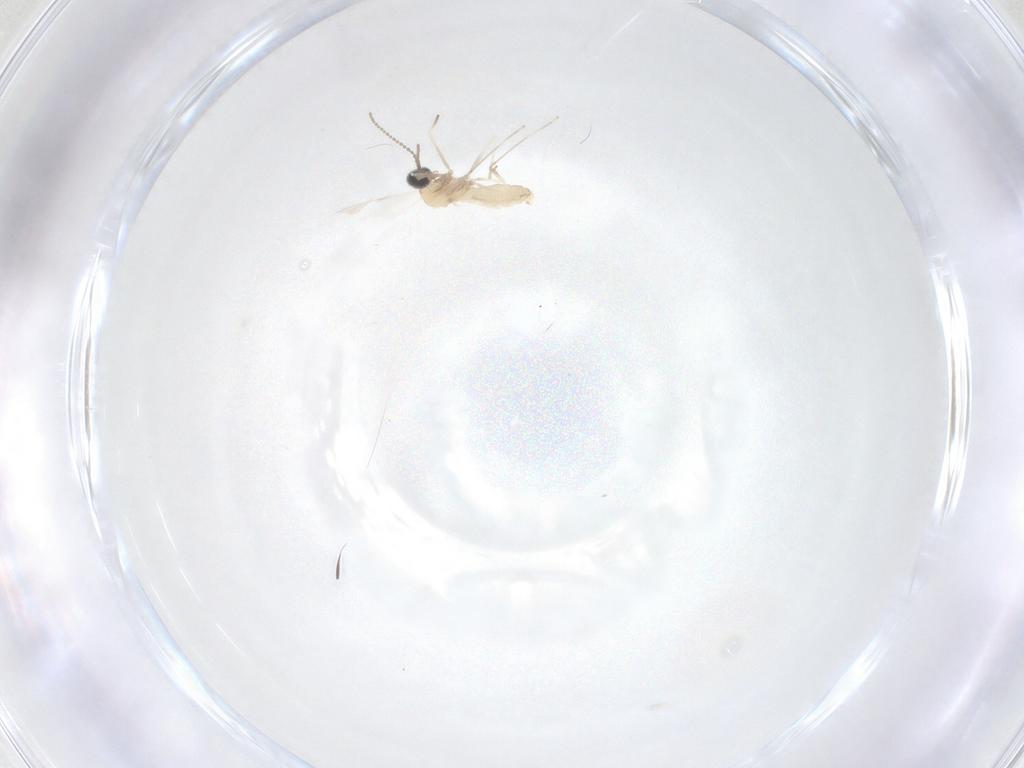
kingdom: Animalia
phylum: Arthropoda
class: Insecta
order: Diptera
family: Cecidomyiidae
